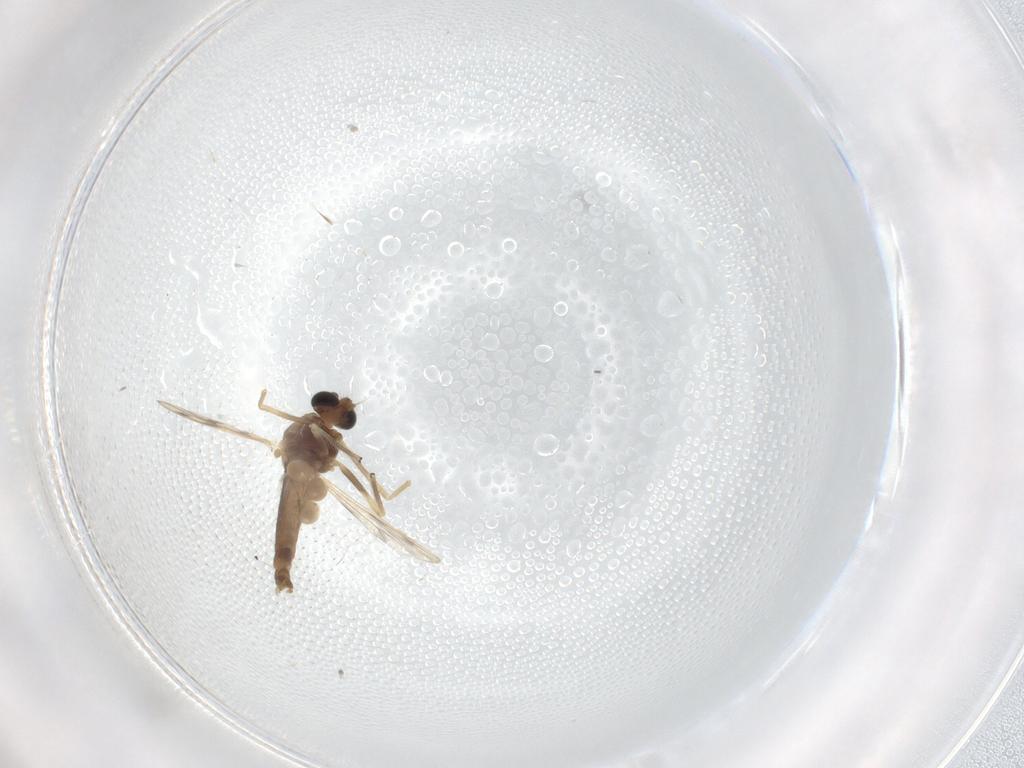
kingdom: Animalia
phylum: Arthropoda
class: Insecta
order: Diptera
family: Chironomidae
